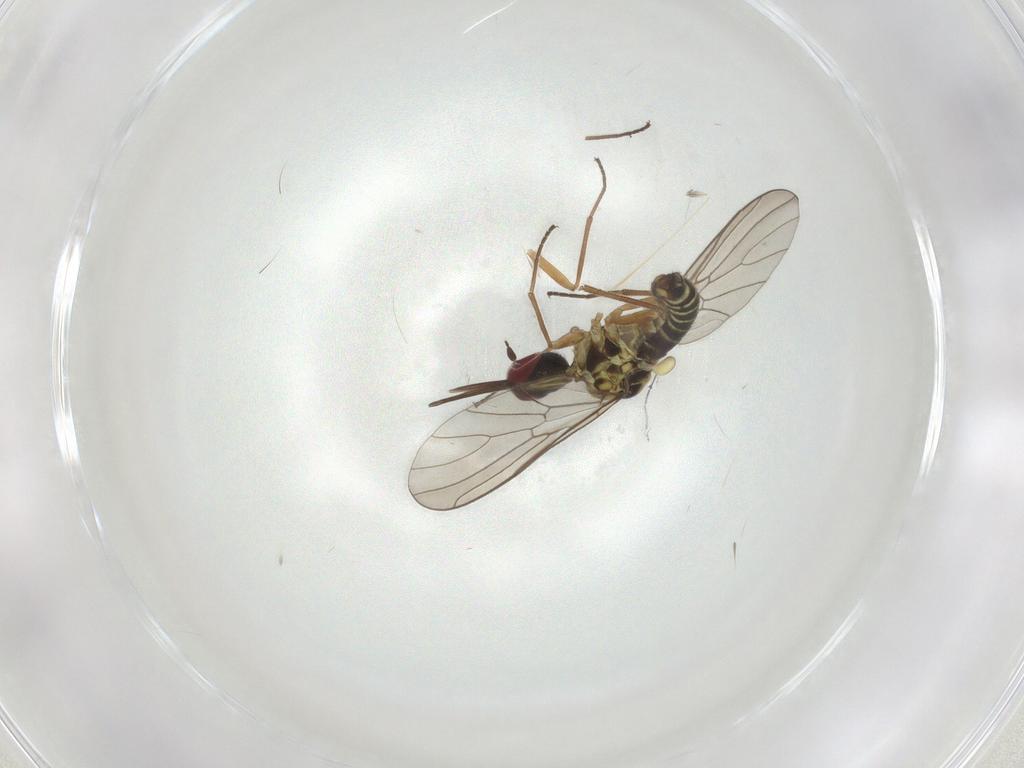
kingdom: Animalia
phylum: Arthropoda
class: Insecta
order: Diptera
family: Bombyliidae
